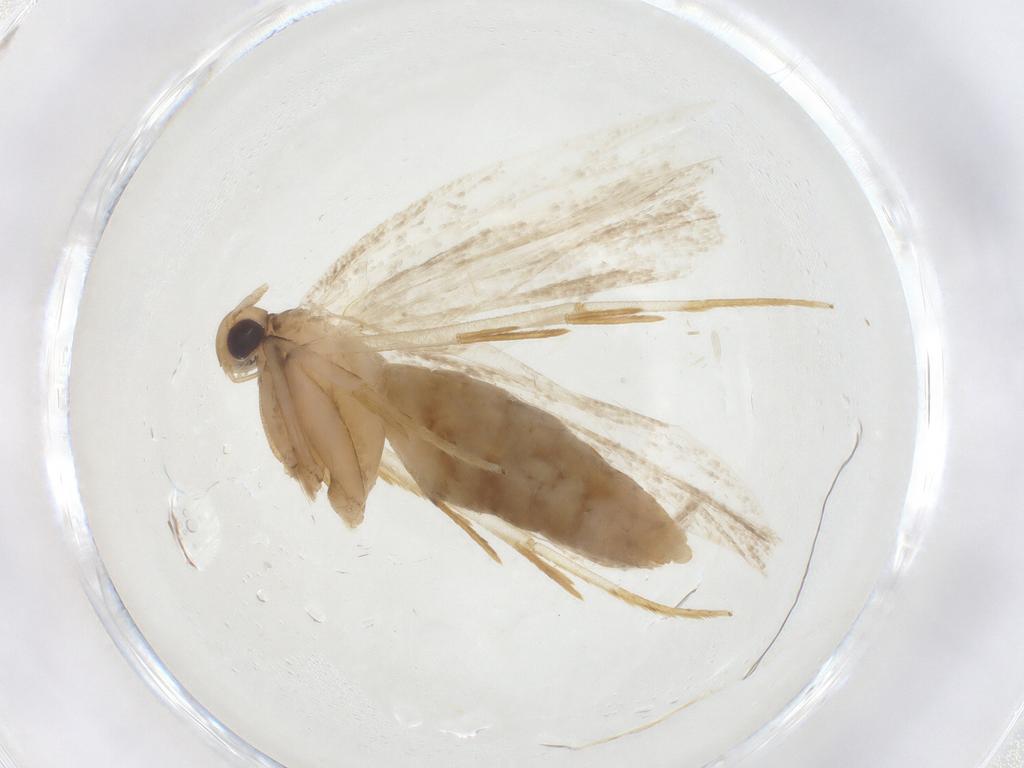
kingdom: Animalia
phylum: Arthropoda
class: Insecta
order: Lepidoptera
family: Lecithoceridae
